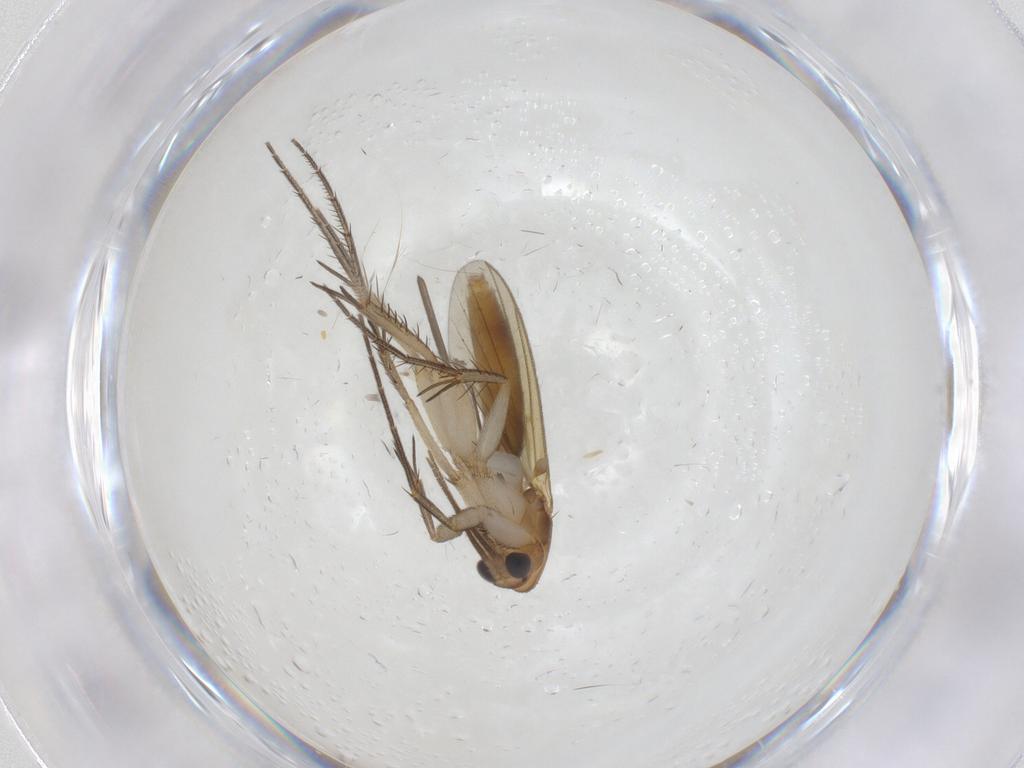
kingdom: Animalia
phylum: Arthropoda
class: Insecta
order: Diptera
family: Mycetophilidae
